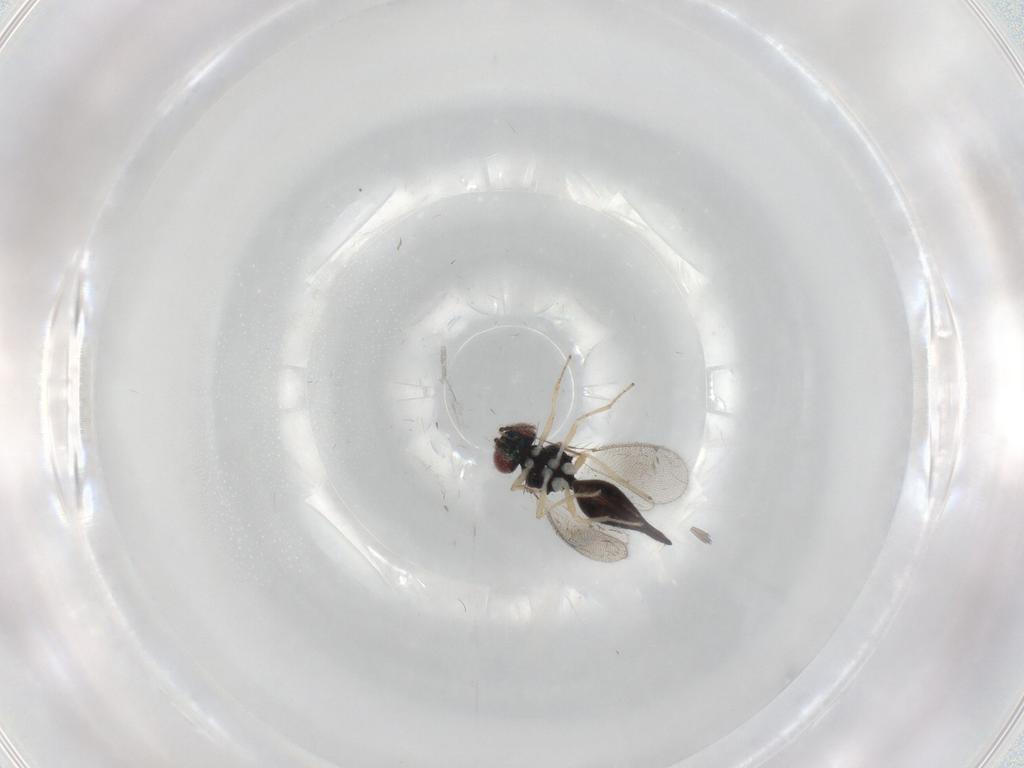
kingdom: Animalia
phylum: Arthropoda
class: Insecta
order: Hymenoptera
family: Eulophidae
